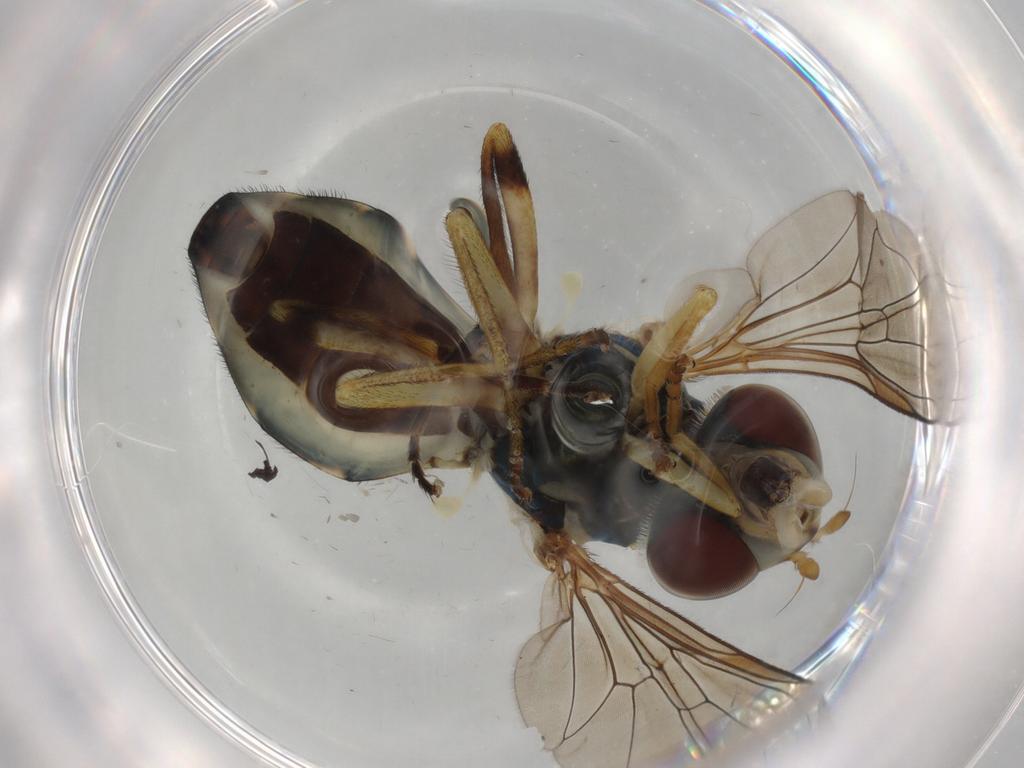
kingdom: Animalia
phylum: Arthropoda
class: Insecta
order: Diptera
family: Syrphidae
